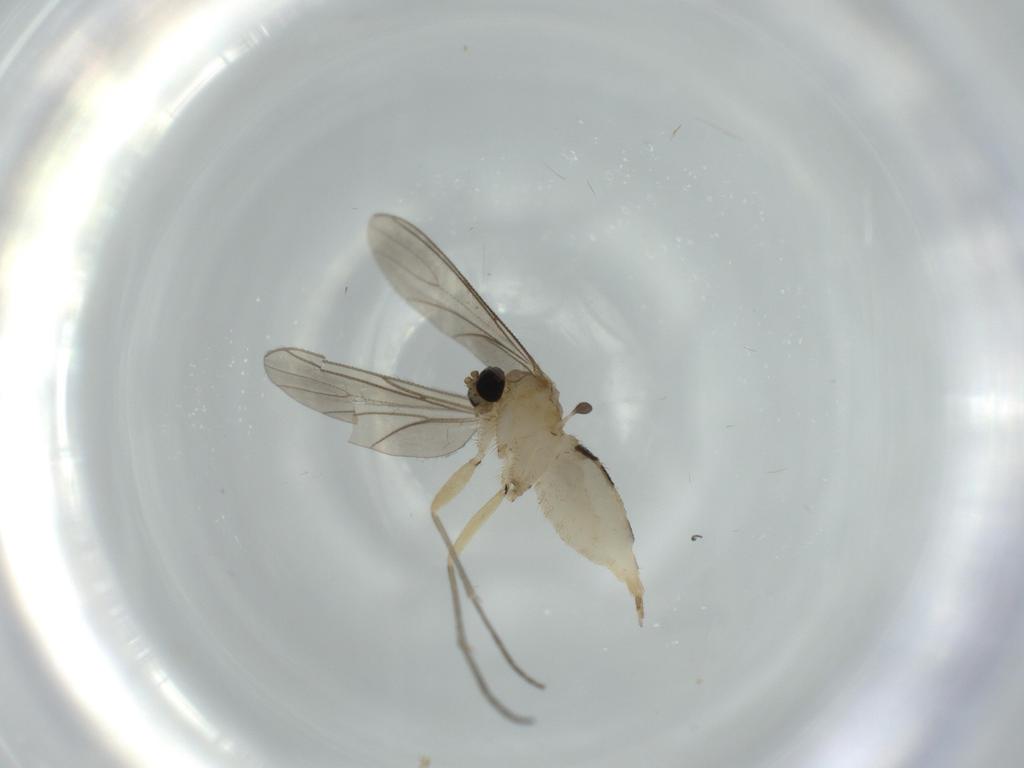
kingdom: Animalia
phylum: Arthropoda
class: Insecta
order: Diptera
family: Sciaridae
